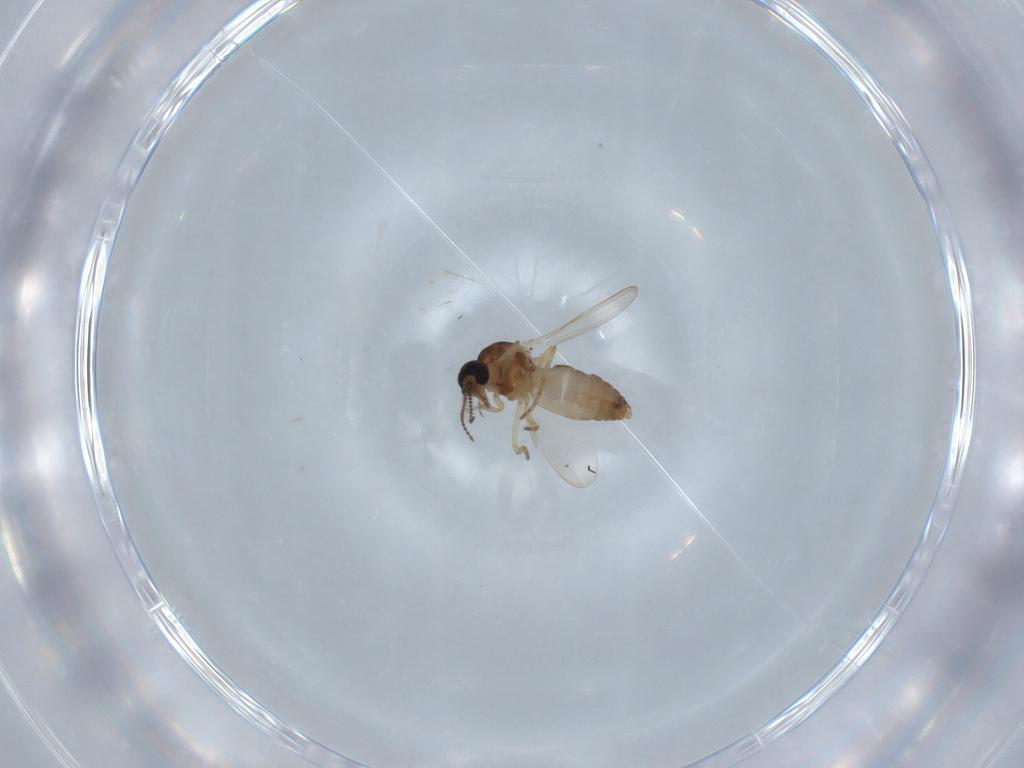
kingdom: Animalia
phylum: Arthropoda
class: Insecta
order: Diptera
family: Ceratopogonidae
